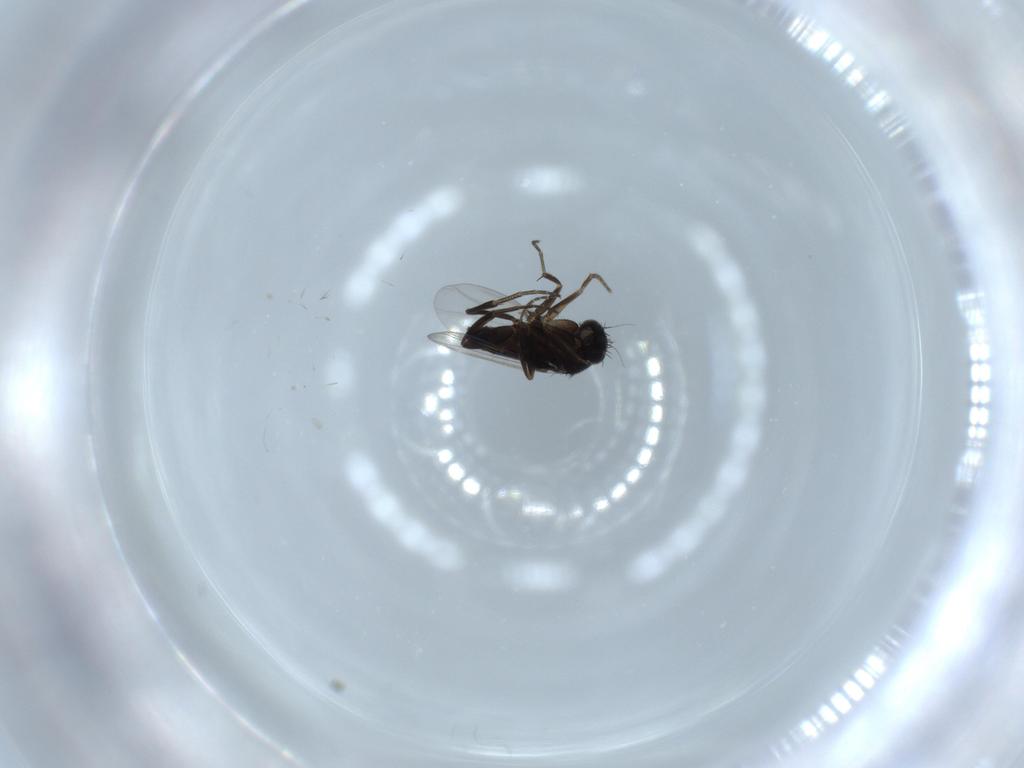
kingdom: Animalia
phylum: Arthropoda
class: Insecta
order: Diptera
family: Phoridae
